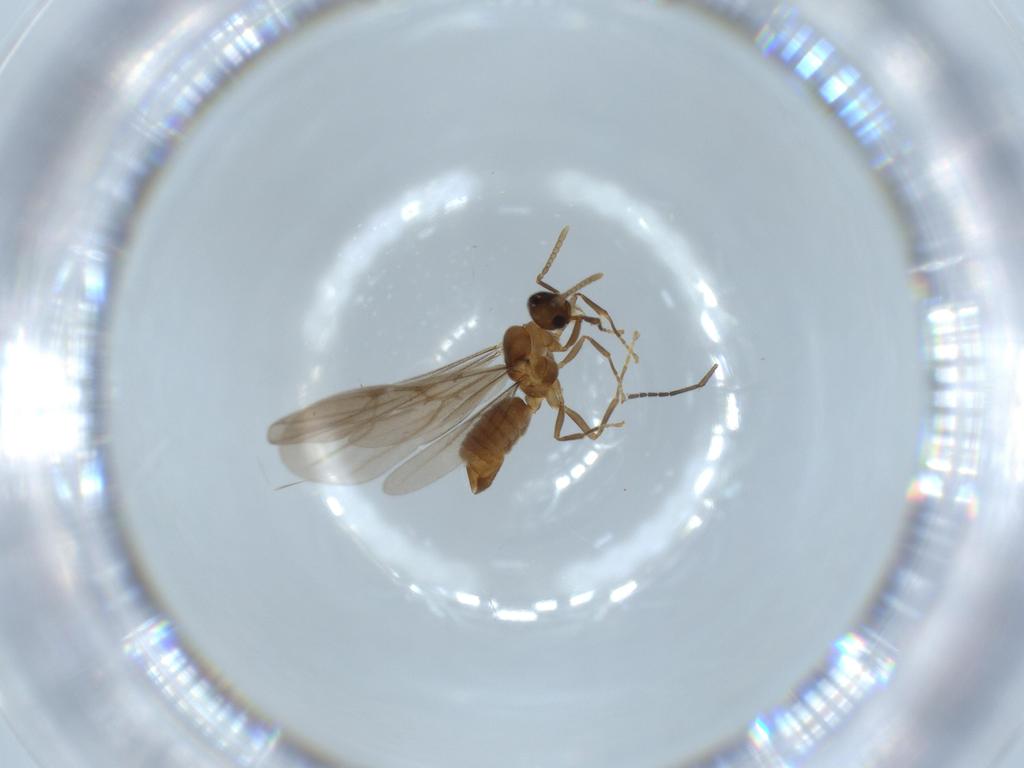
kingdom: Animalia
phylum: Arthropoda
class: Insecta
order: Hymenoptera
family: Formicidae
